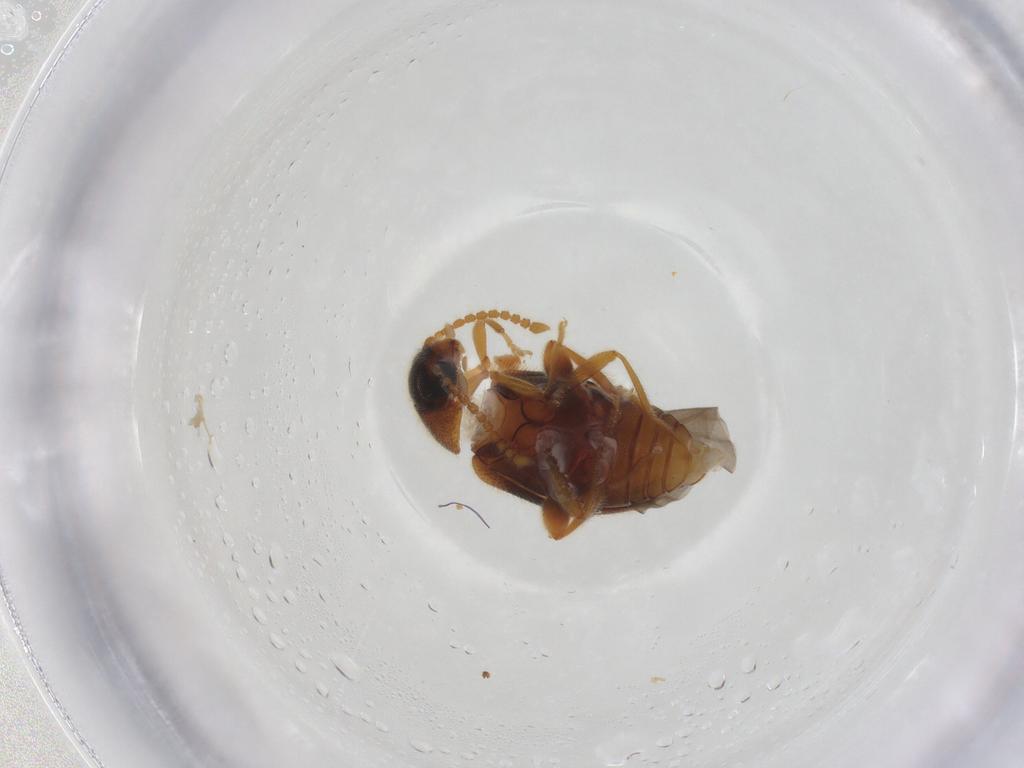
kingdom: Animalia
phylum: Arthropoda
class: Insecta
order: Coleoptera
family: Aderidae
